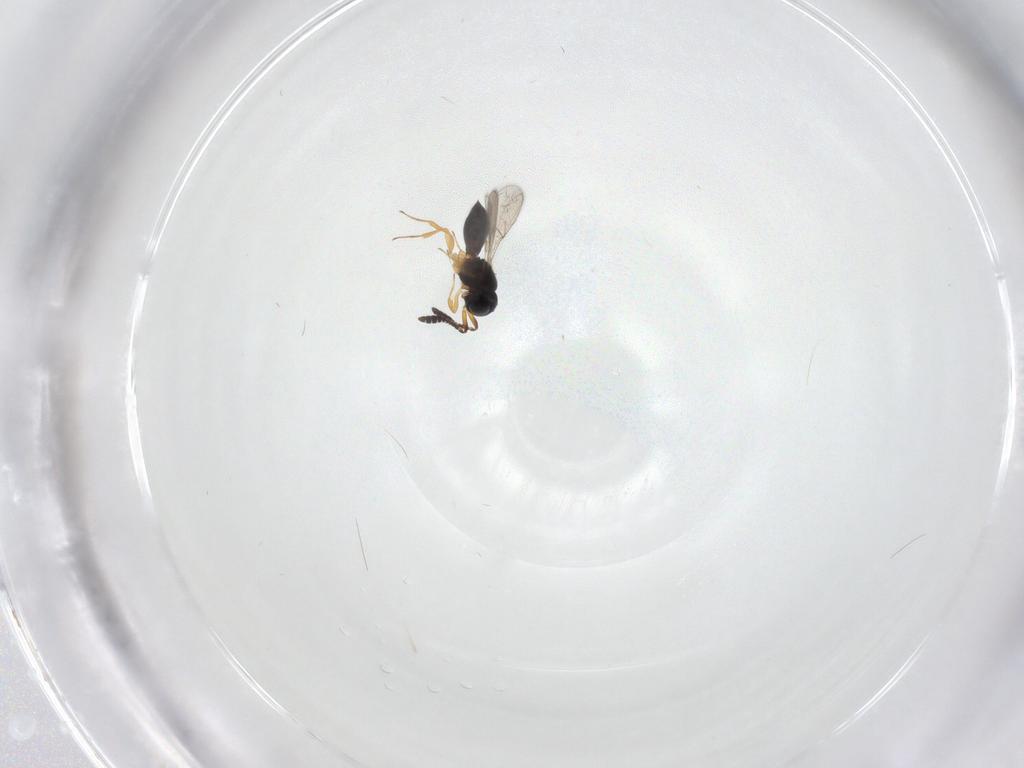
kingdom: Animalia
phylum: Arthropoda
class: Insecta
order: Hymenoptera
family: Scelionidae
